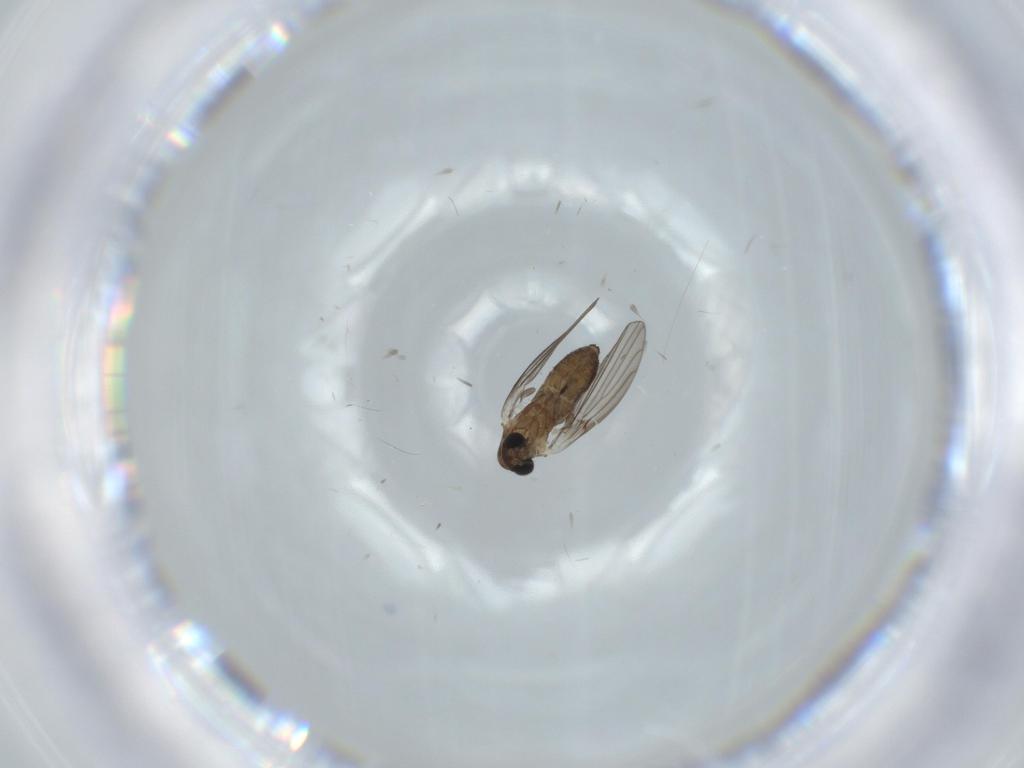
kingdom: Animalia
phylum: Arthropoda
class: Insecta
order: Diptera
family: Psychodidae
